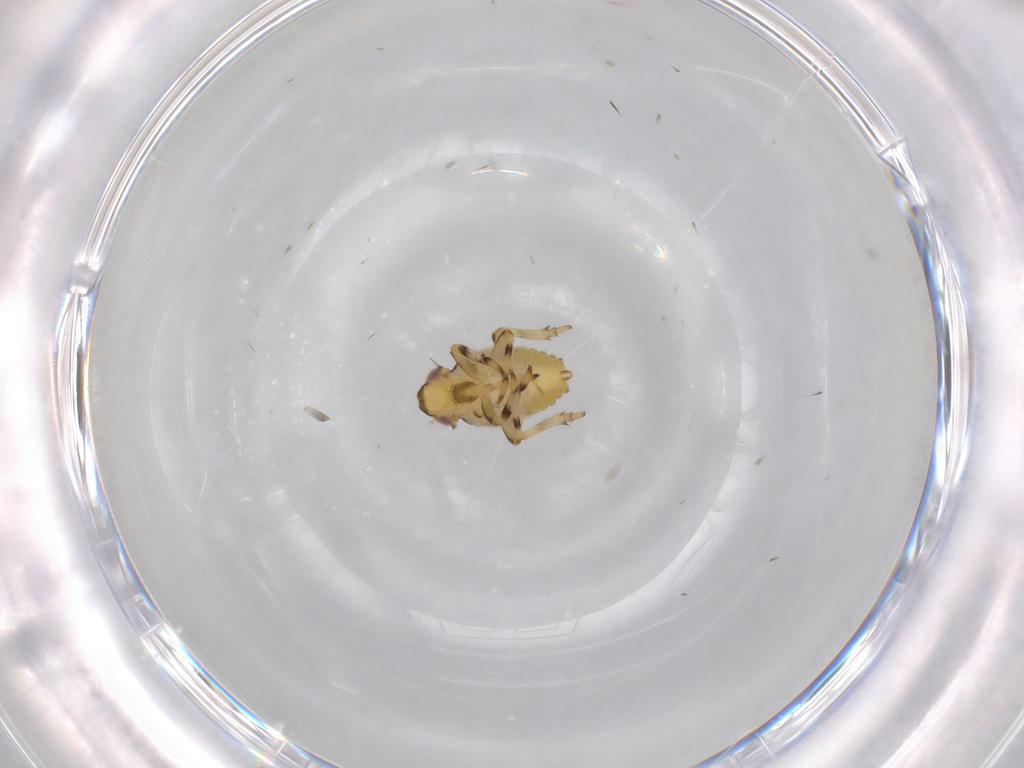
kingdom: Animalia
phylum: Arthropoda
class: Insecta
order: Hemiptera
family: Issidae
